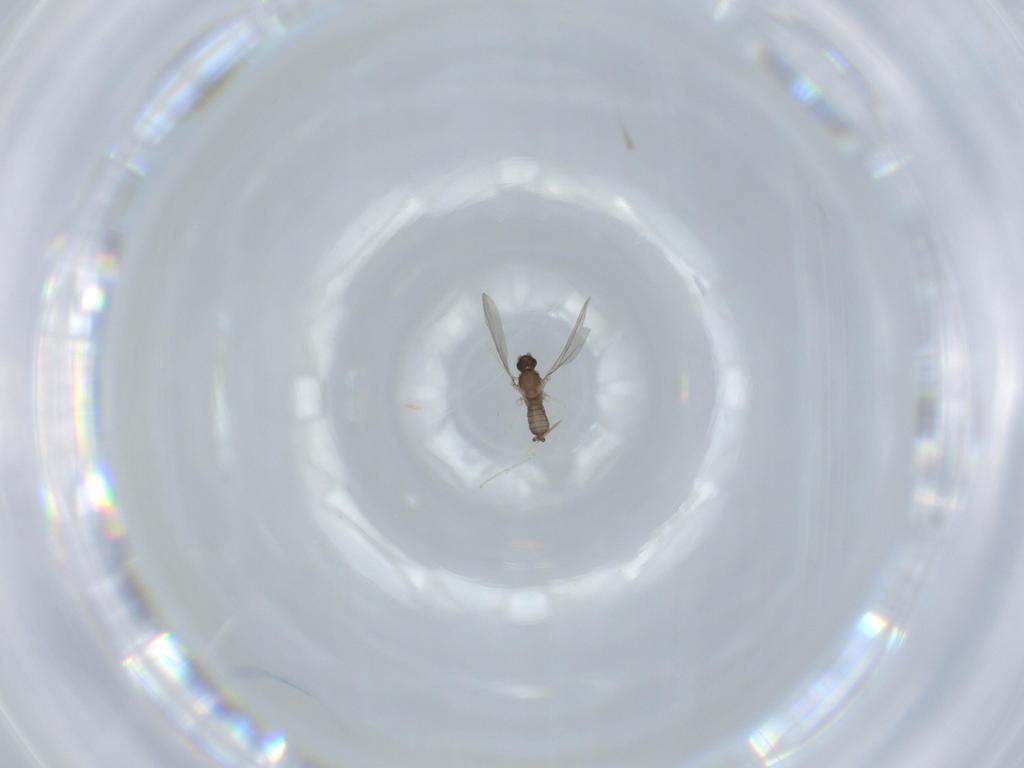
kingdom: Animalia
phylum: Arthropoda
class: Insecta
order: Diptera
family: Cecidomyiidae
